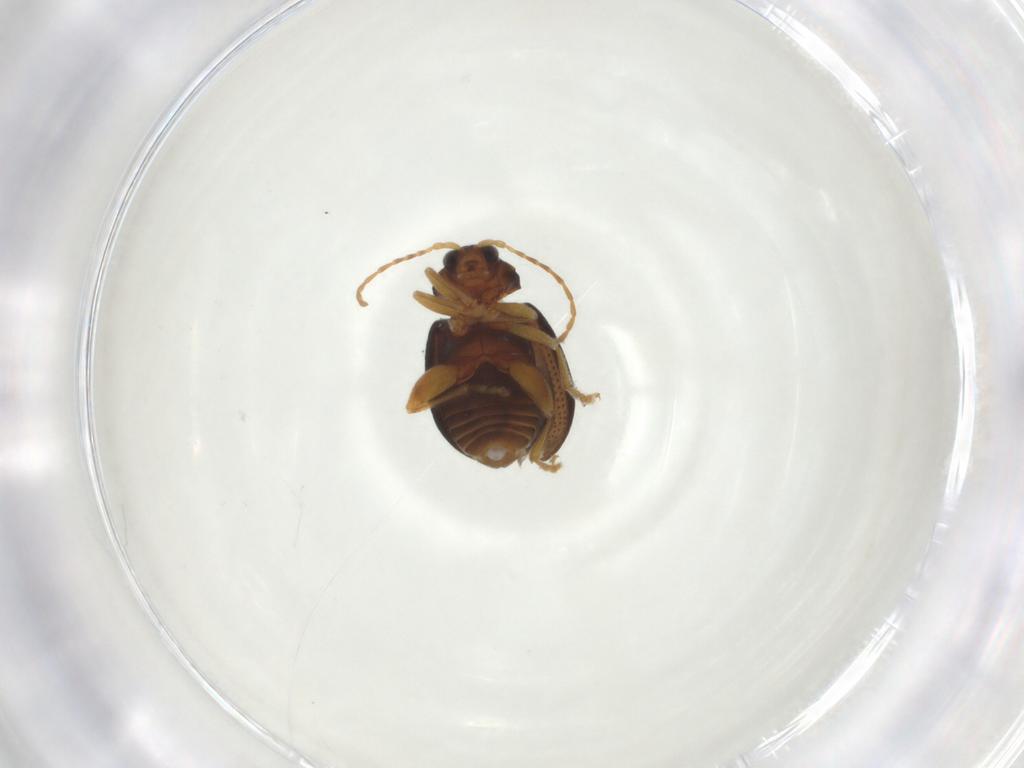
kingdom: Animalia
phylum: Arthropoda
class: Insecta
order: Coleoptera
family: Chrysomelidae
